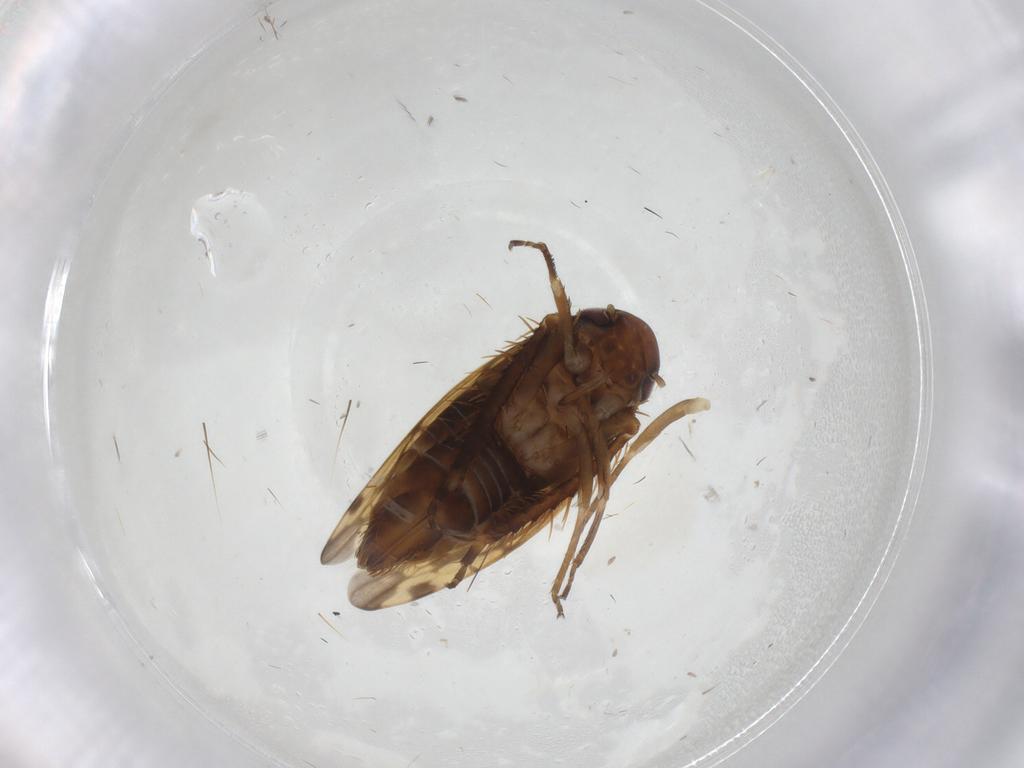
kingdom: Animalia
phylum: Arthropoda
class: Insecta
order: Hemiptera
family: Cicadellidae
